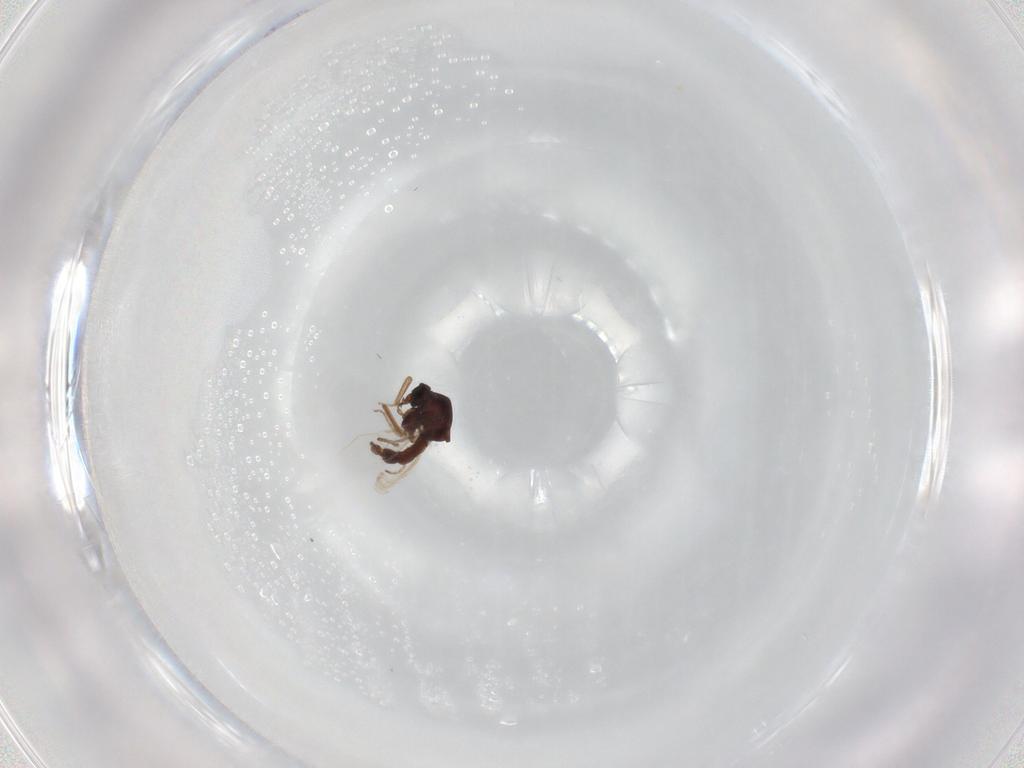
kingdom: Animalia
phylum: Arthropoda
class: Insecta
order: Diptera
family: Ceratopogonidae
